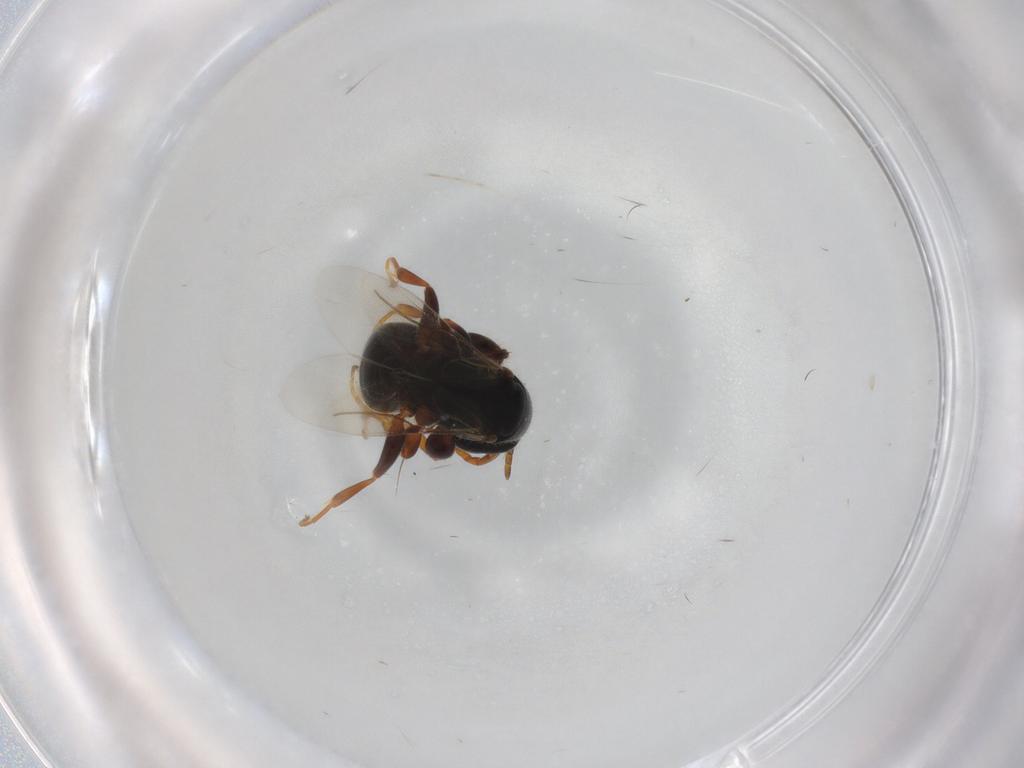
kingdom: Animalia
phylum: Arthropoda
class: Insecta
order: Hymenoptera
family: Bethylidae
